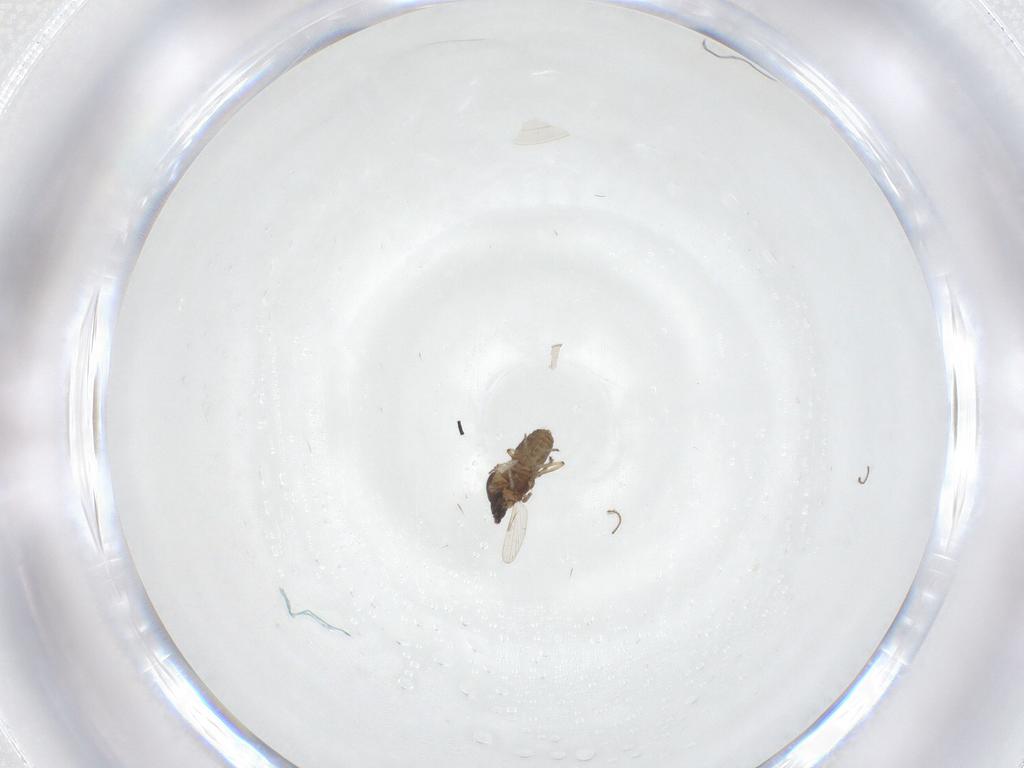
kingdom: Animalia
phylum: Arthropoda
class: Insecta
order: Diptera
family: Ceratopogonidae
